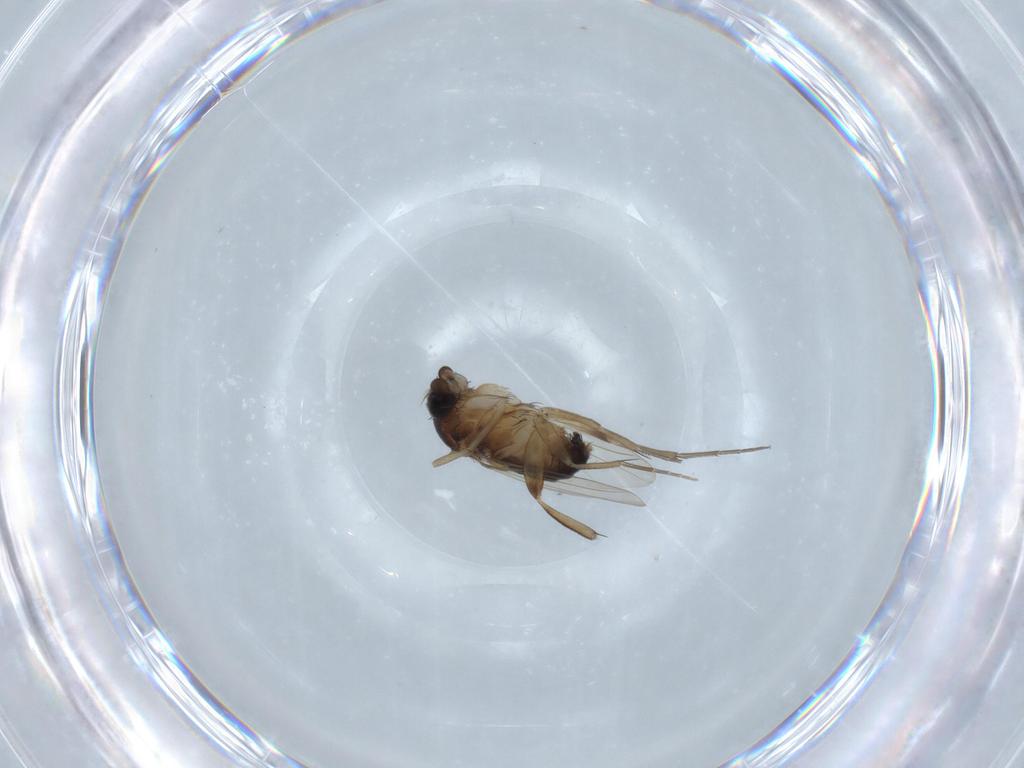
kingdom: Animalia
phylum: Arthropoda
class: Insecta
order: Diptera
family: Phoridae
